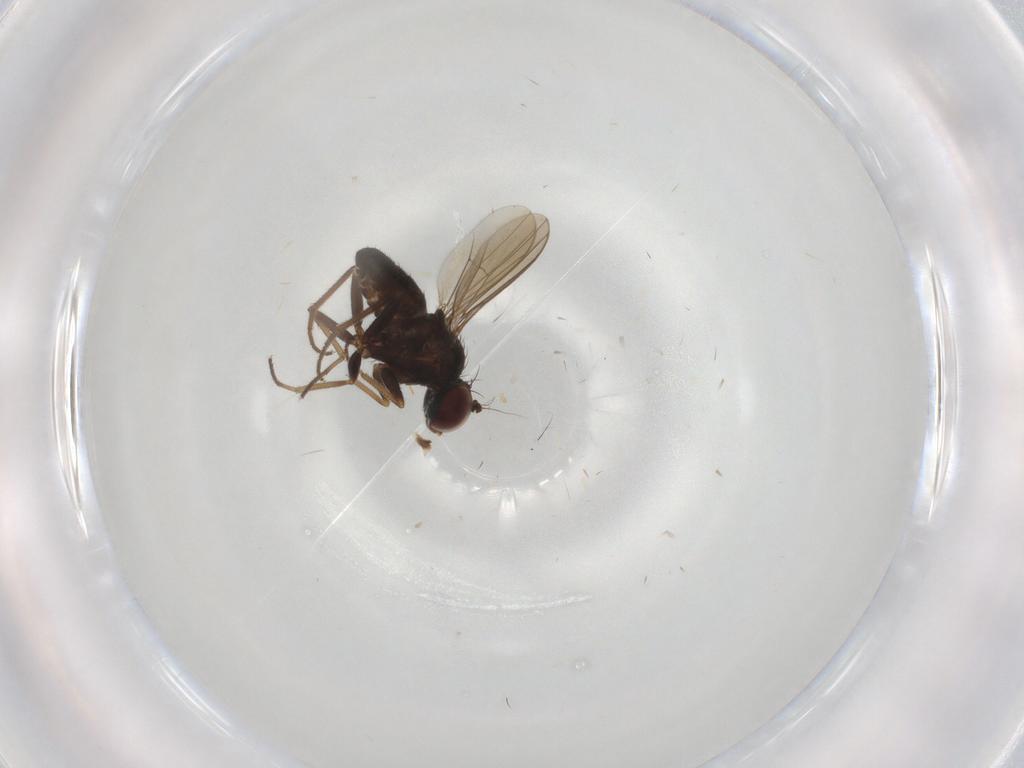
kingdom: Animalia
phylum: Arthropoda
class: Insecta
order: Diptera
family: Dolichopodidae
